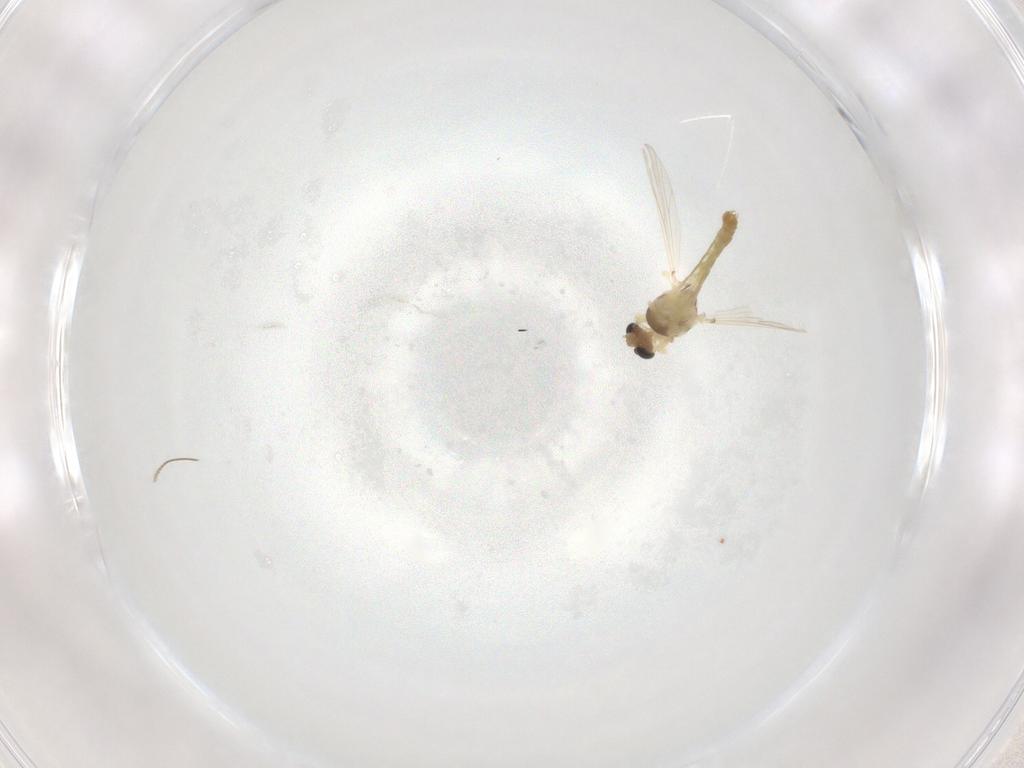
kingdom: Animalia
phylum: Arthropoda
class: Insecta
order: Diptera
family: Chironomidae
